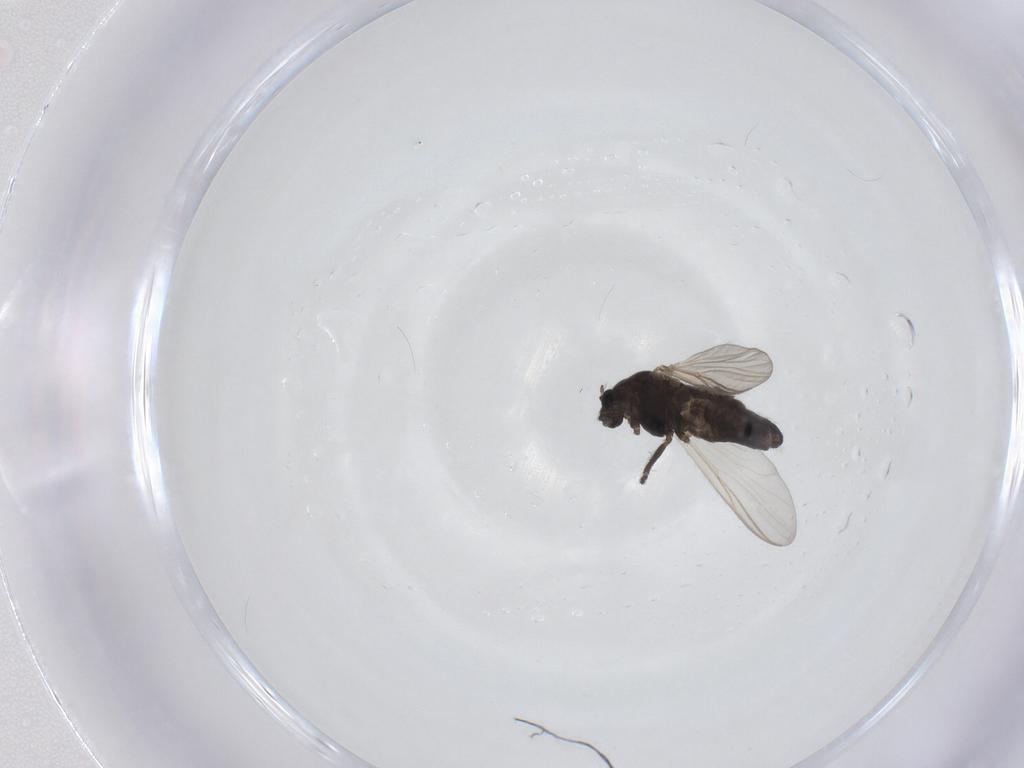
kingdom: Animalia
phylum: Arthropoda
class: Insecta
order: Diptera
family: Chironomidae
